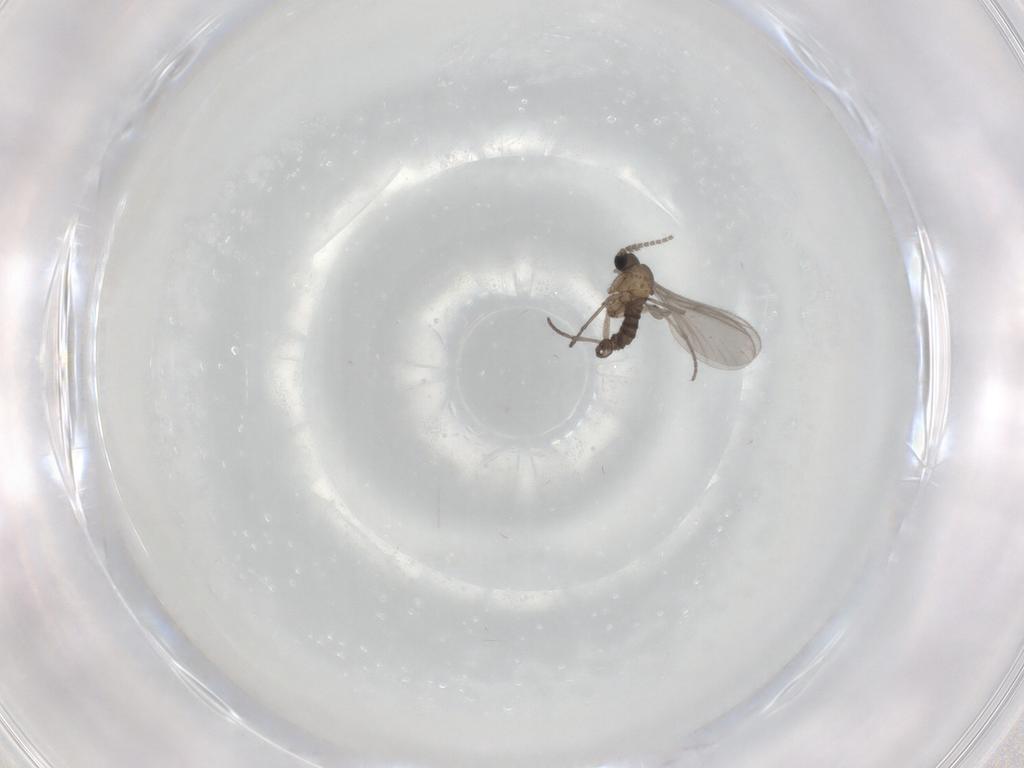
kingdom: Animalia
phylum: Arthropoda
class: Insecta
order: Diptera
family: Sciaridae
